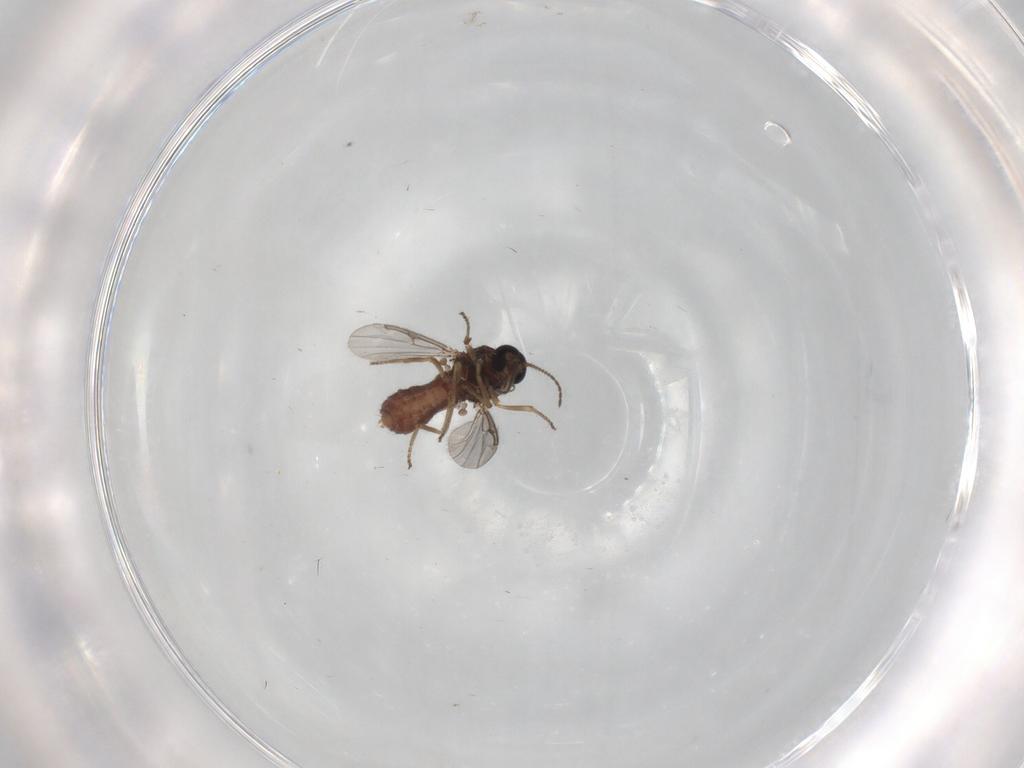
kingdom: Animalia
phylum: Arthropoda
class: Insecta
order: Diptera
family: Ceratopogonidae
